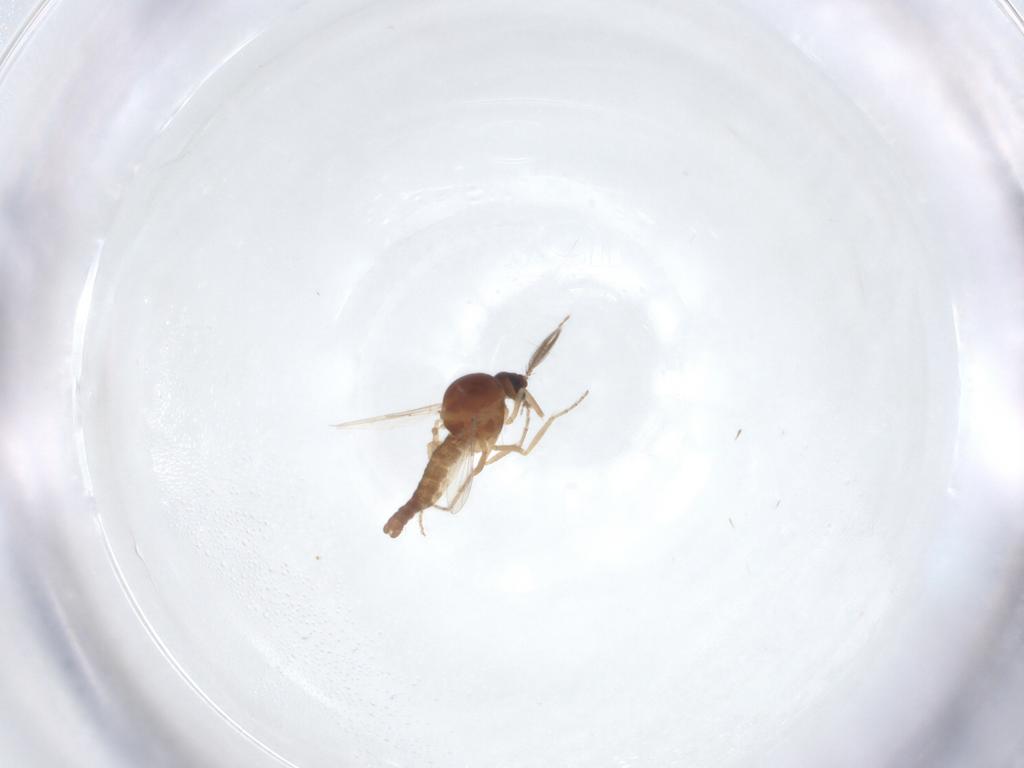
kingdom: Animalia
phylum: Arthropoda
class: Insecta
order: Diptera
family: Ceratopogonidae
